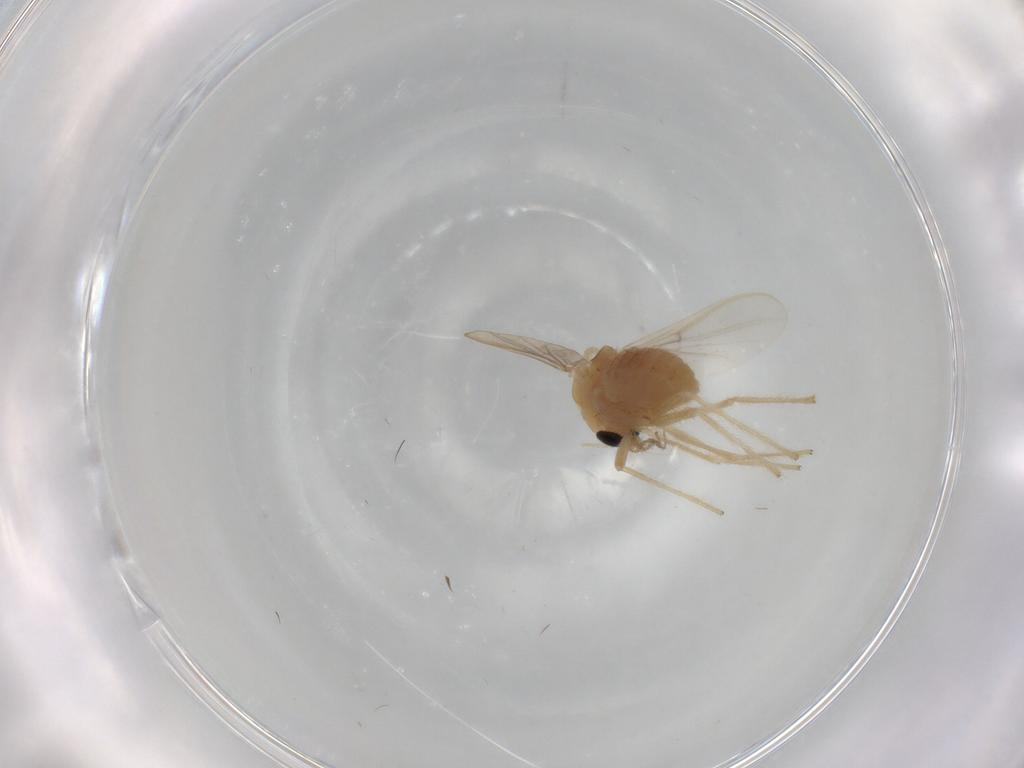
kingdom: Animalia
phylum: Arthropoda
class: Insecta
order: Diptera
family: Chironomidae
